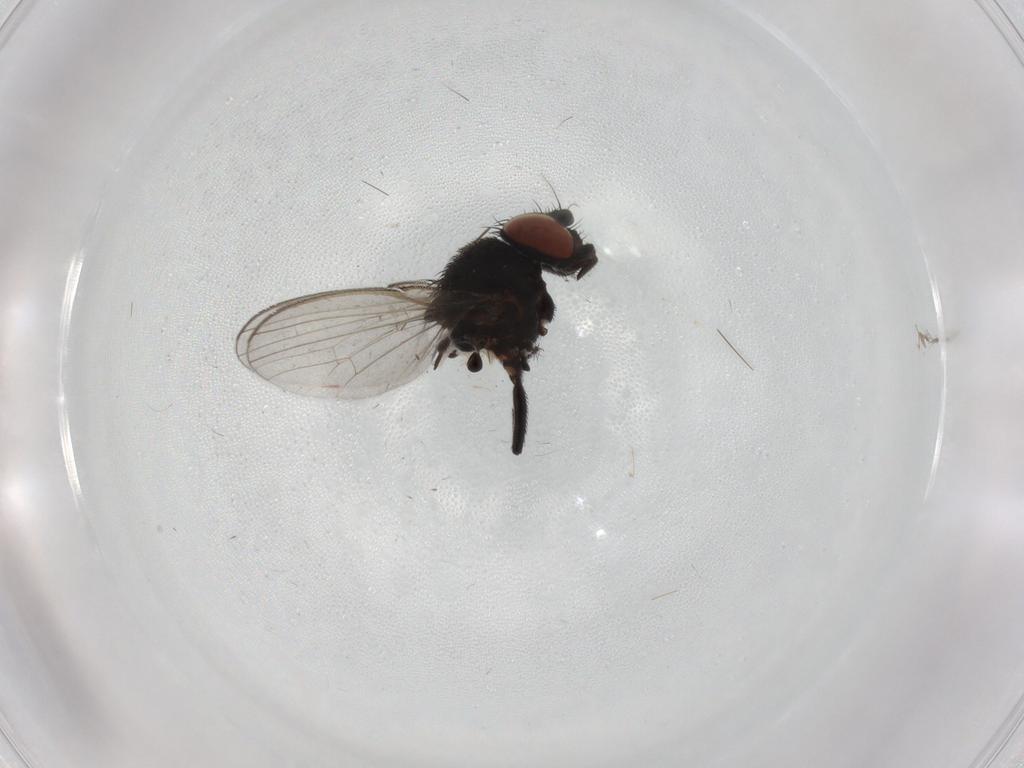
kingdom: Animalia
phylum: Arthropoda
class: Insecta
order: Diptera
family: Milichiidae
